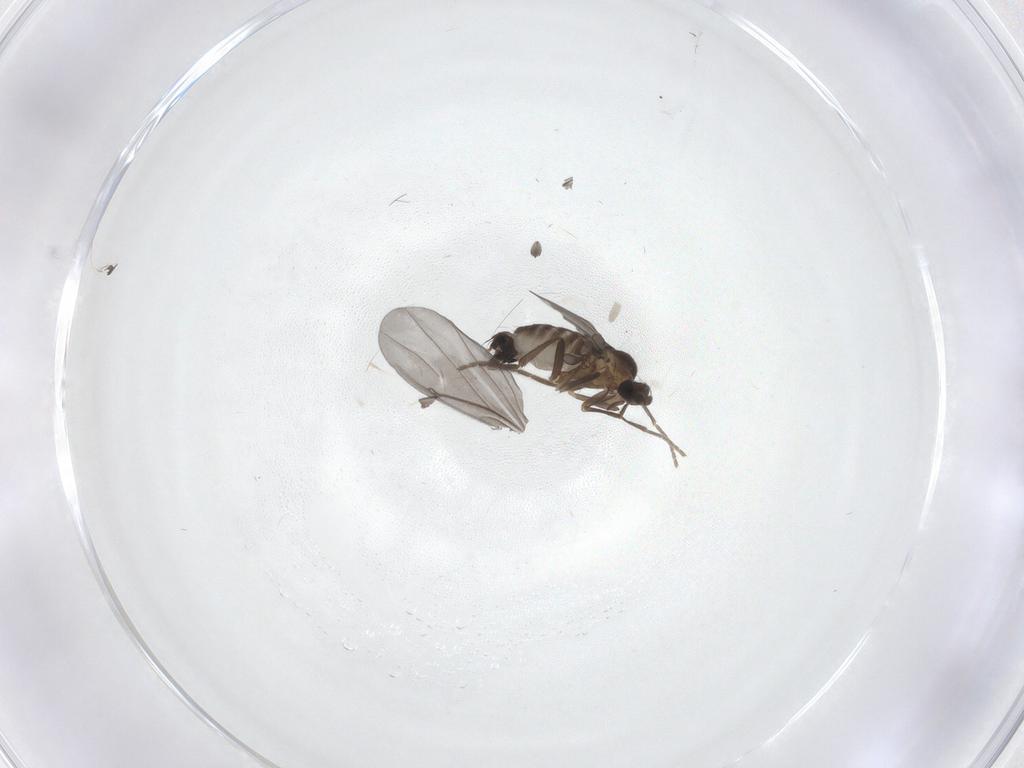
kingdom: Animalia
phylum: Arthropoda
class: Insecta
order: Diptera
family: Phoridae
